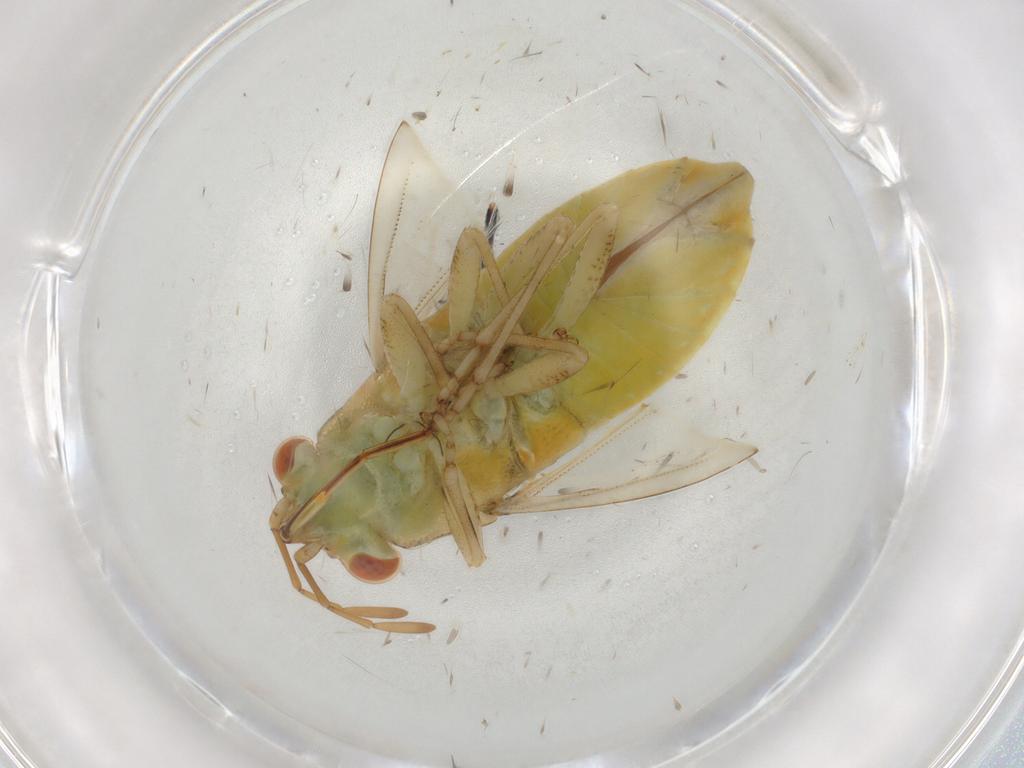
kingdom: Animalia
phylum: Arthropoda
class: Insecta
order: Hemiptera
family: Geocoridae
